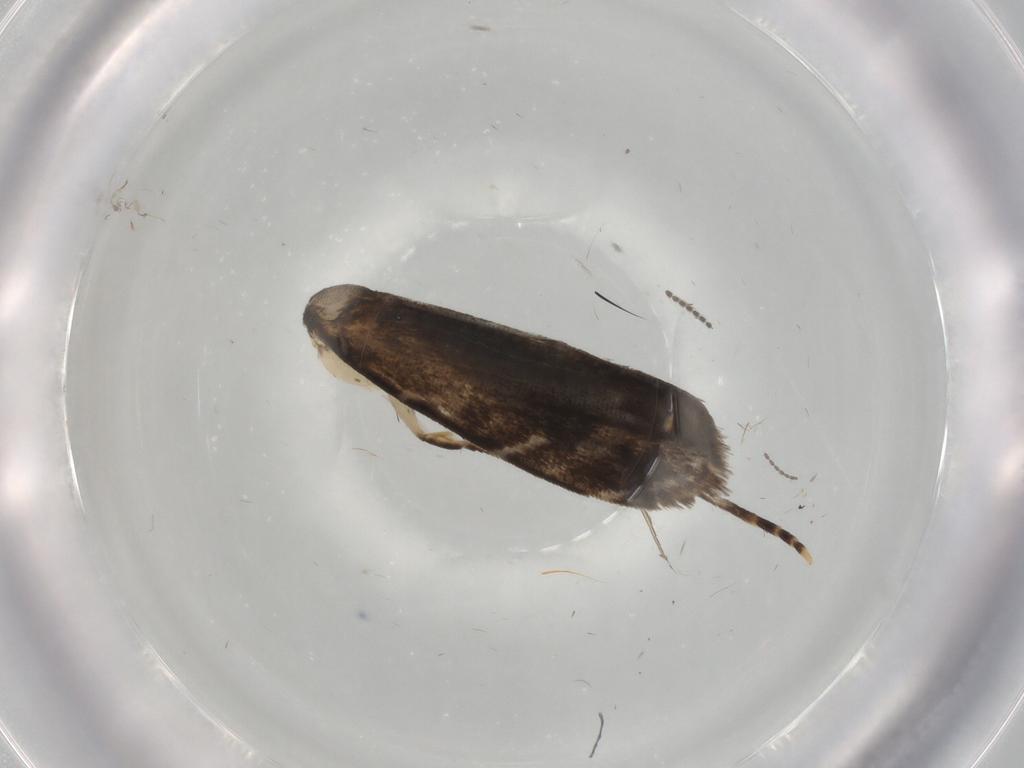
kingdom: Animalia
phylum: Arthropoda
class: Insecta
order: Lepidoptera
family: Dryadaulidae
